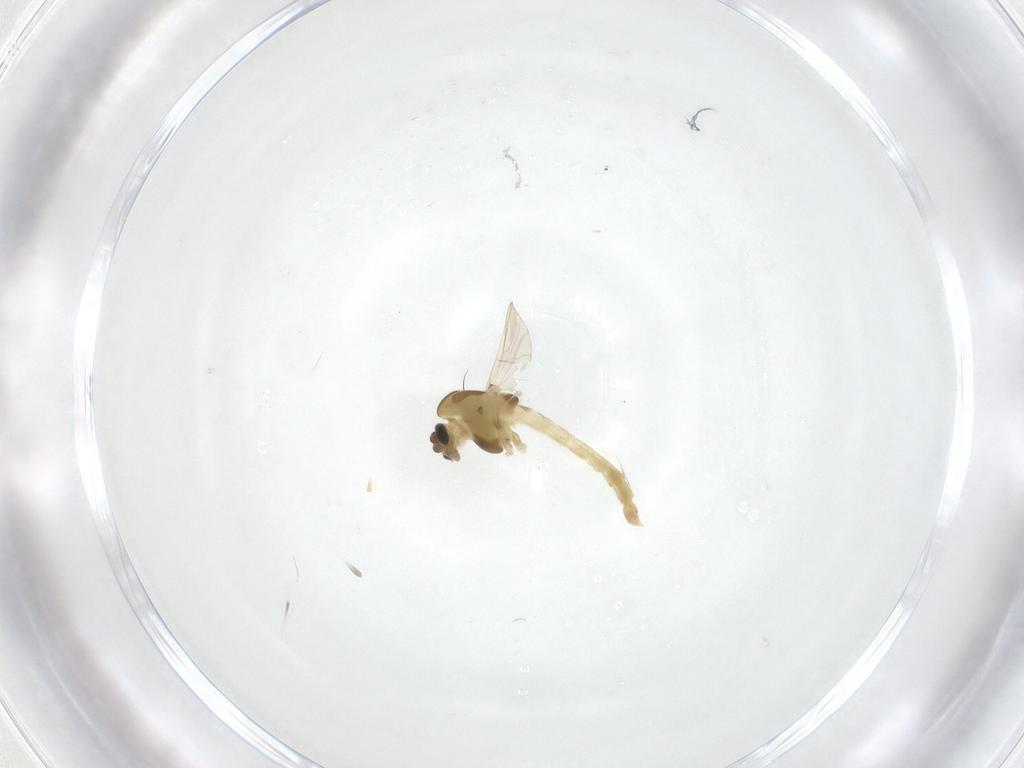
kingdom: Animalia
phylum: Arthropoda
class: Insecta
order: Diptera
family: Chironomidae
